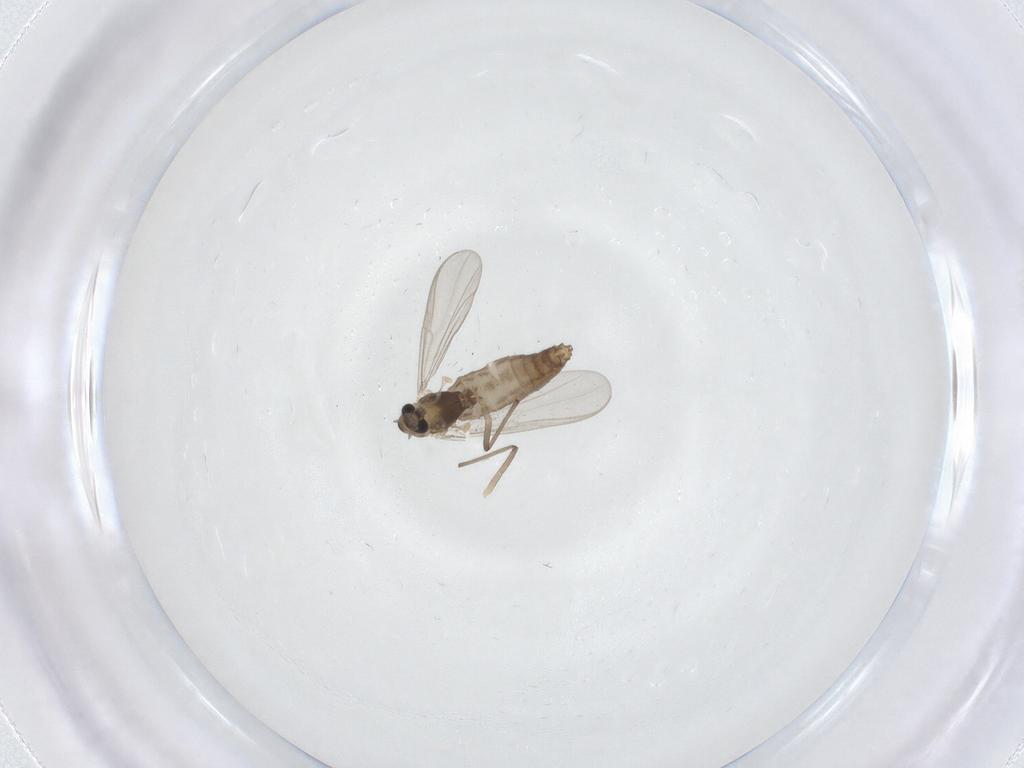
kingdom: Animalia
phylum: Arthropoda
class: Insecta
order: Diptera
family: Chironomidae
